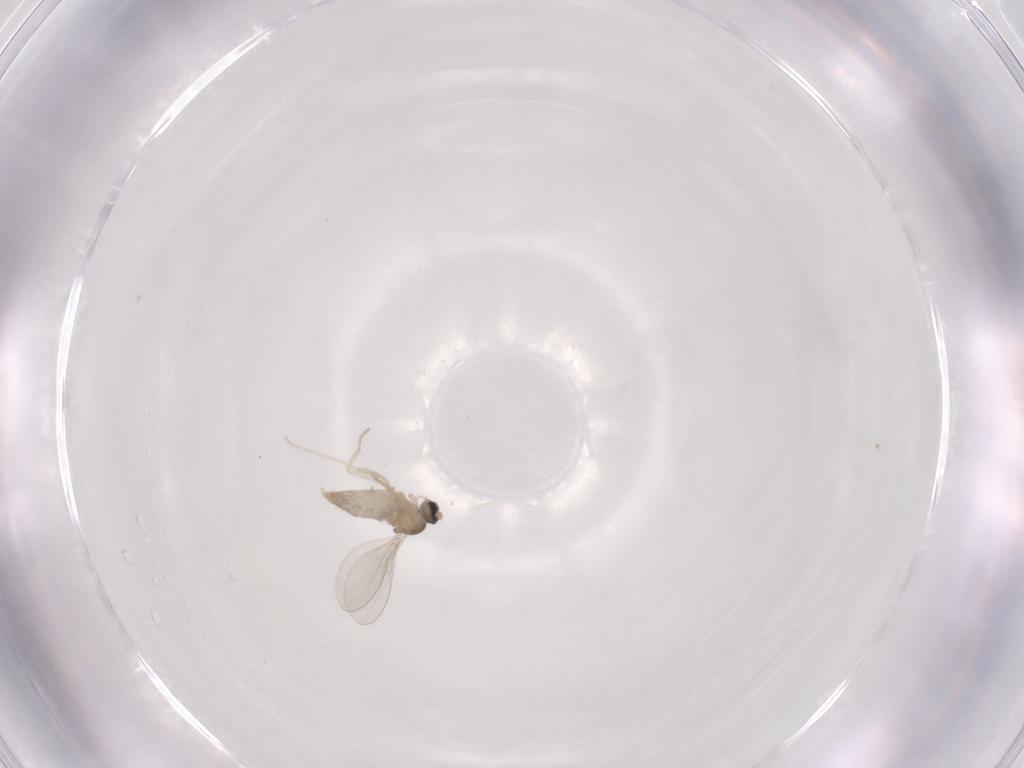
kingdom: Animalia
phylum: Arthropoda
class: Insecta
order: Diptera
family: Cecidomyiidae
